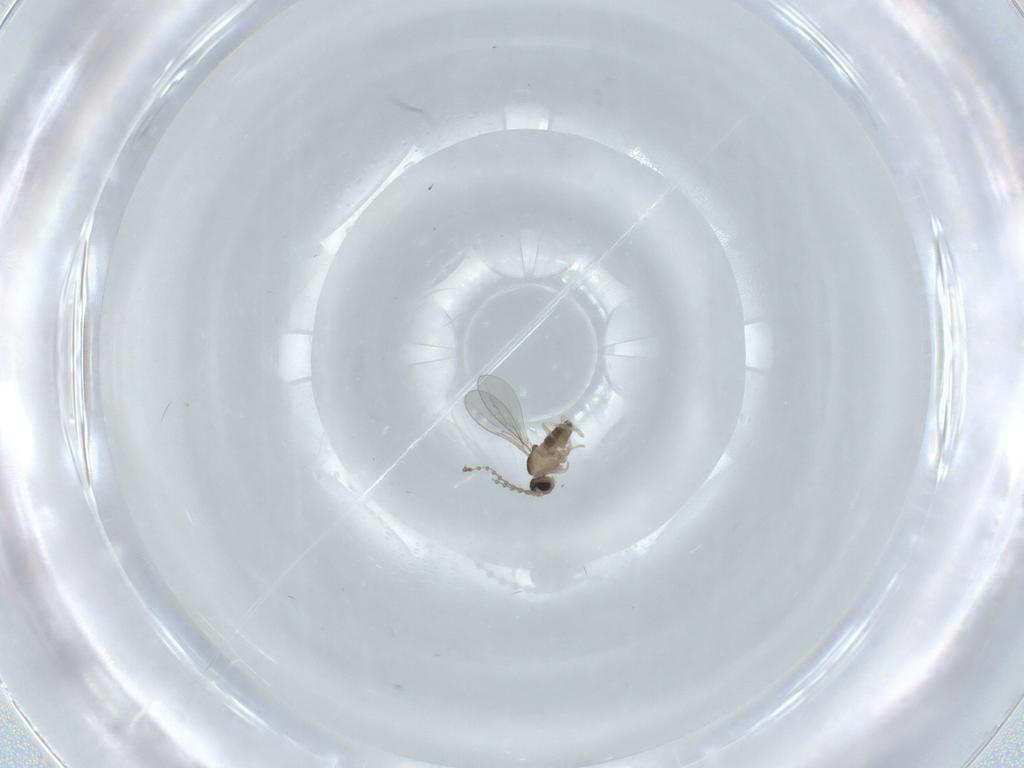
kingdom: Animalia
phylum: Arthropoda
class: Insecta
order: Diptera
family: Cecidomyiidae
